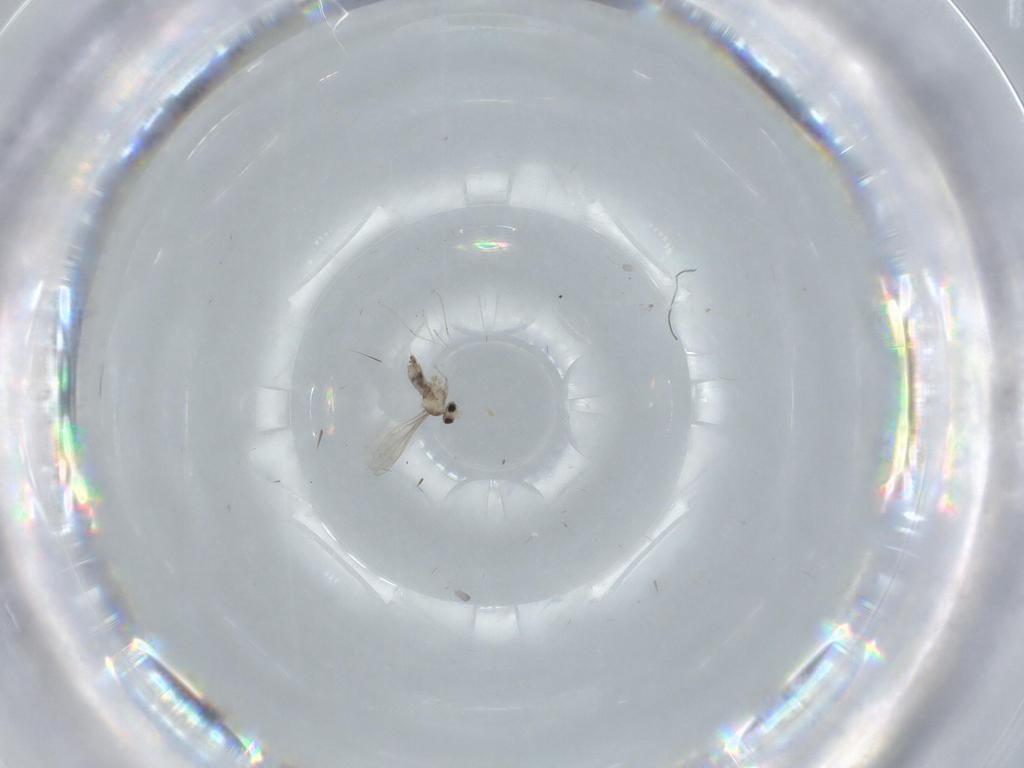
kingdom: Animalia
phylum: Arthropoda
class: Insecta
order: Diptera
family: Cecidomyiidae
